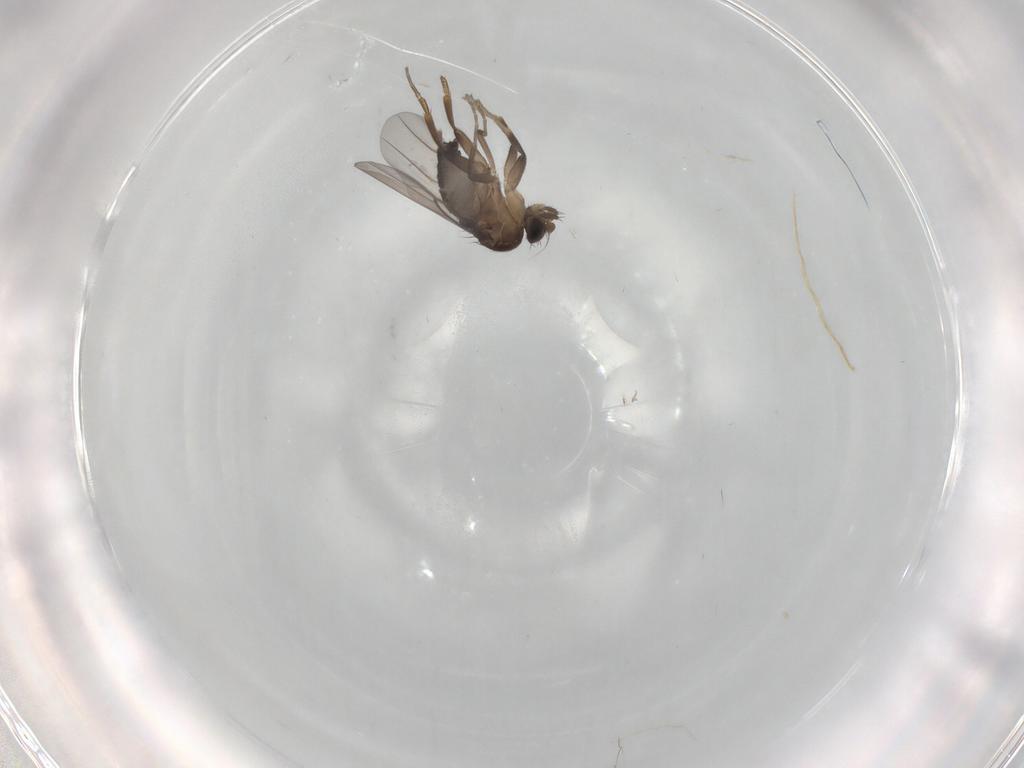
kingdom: Animalia
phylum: Arthropoda
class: Insecta
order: Diptera
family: Phoridae
